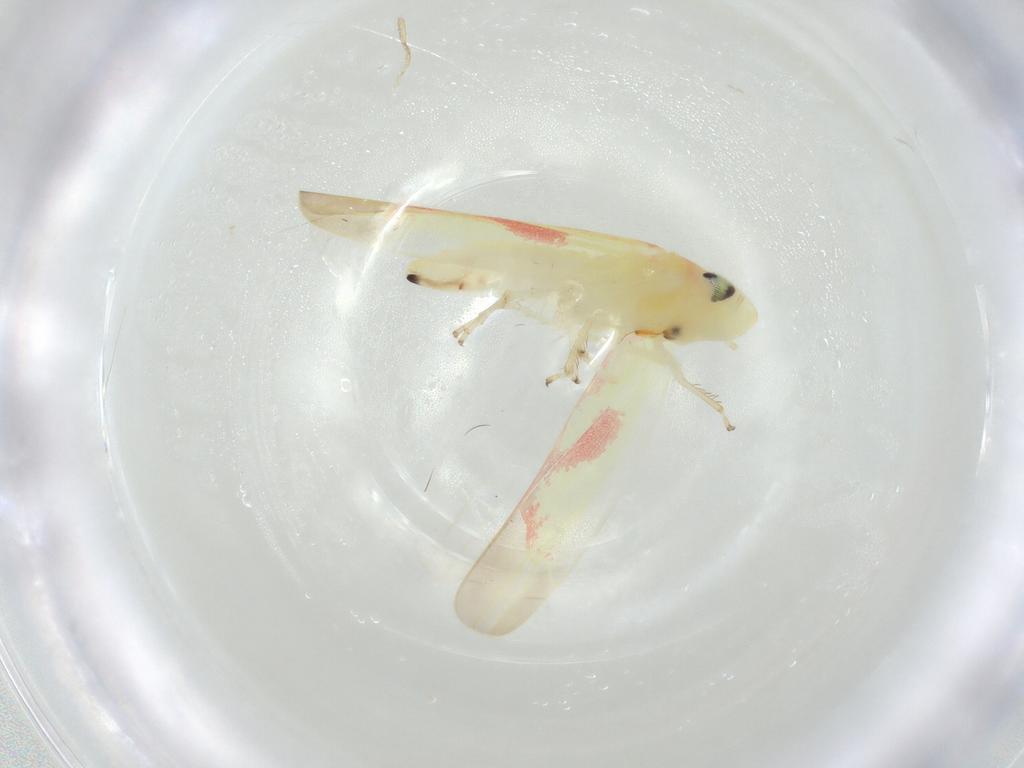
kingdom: Animalia
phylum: Arthropoda
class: Insecta
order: Hemiptera
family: Cicadellidae
